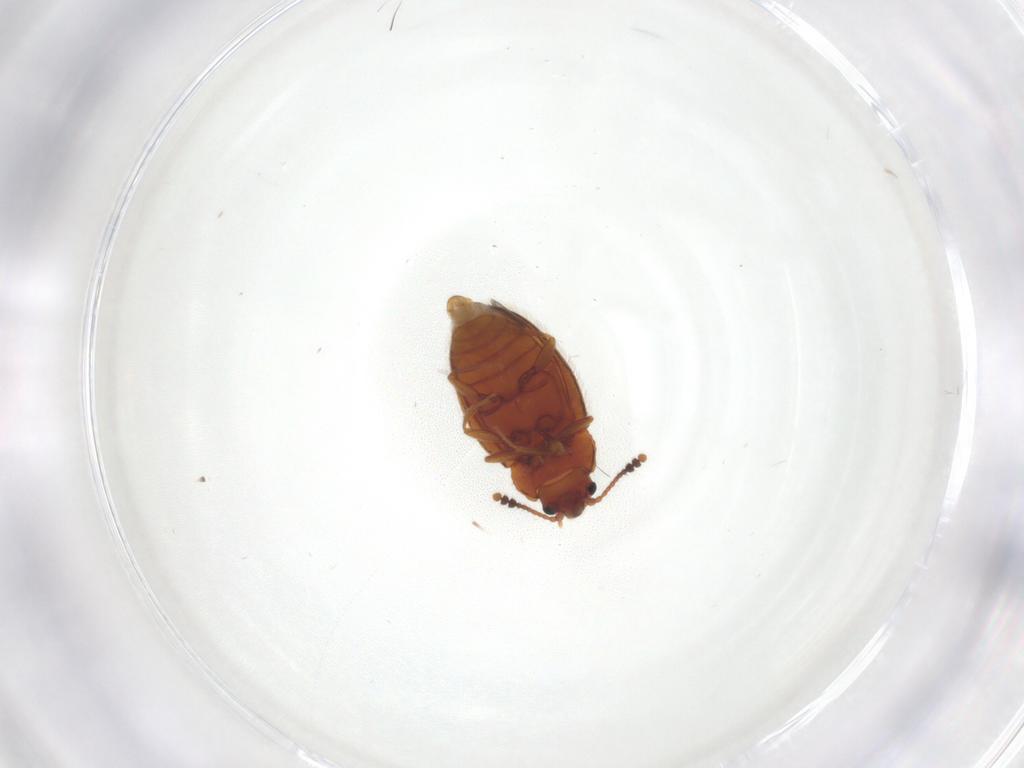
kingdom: Animalia
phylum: Arthropoda
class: Insecta
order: Coleoptera
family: Erotylidae
